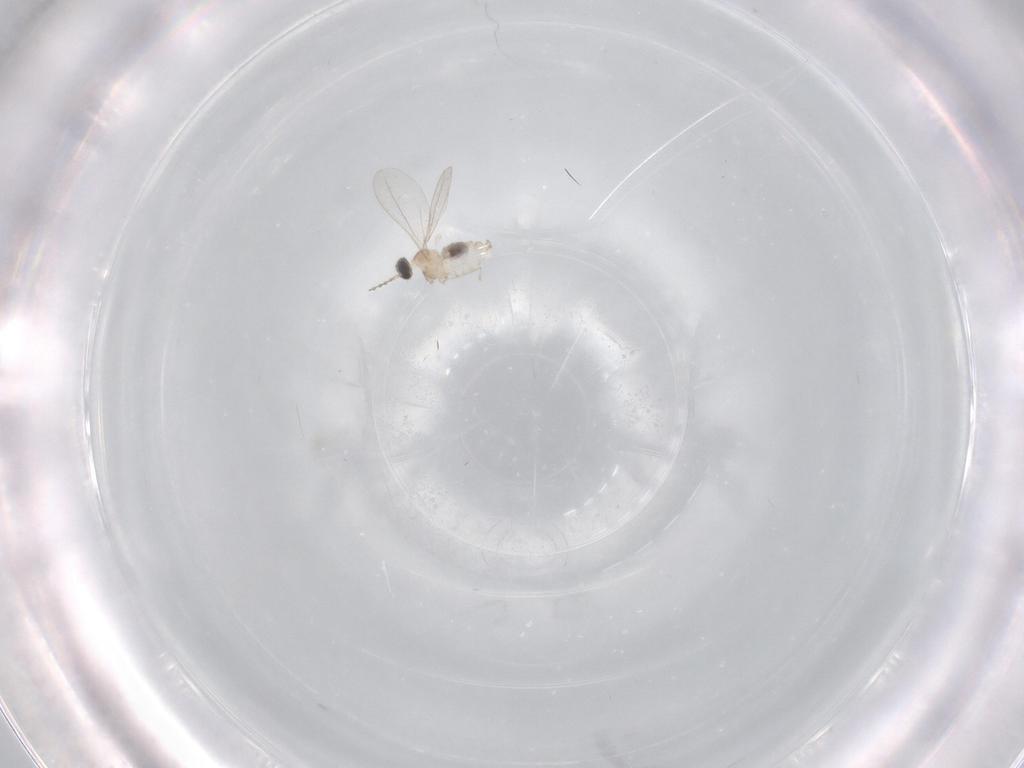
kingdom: Animalia
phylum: Arthropoda
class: Insecta
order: Diptera
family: Cecidomyiidae
